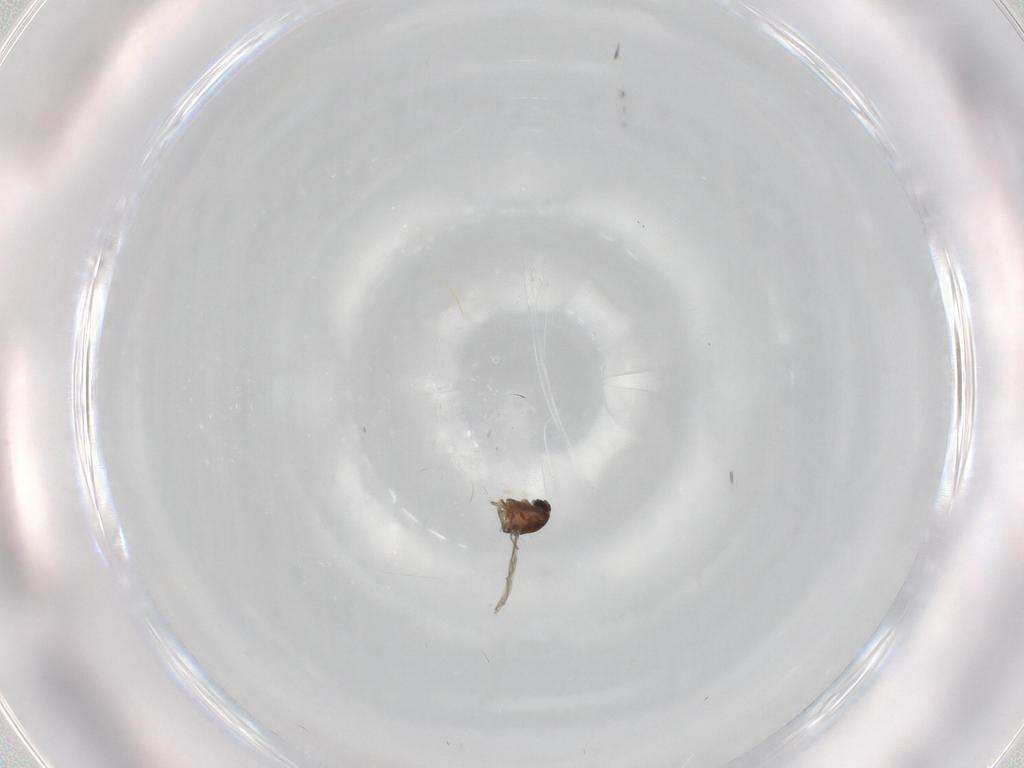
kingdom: Animalia
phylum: Arthropoda
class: Insecta
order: Diptera
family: Chironomidae
